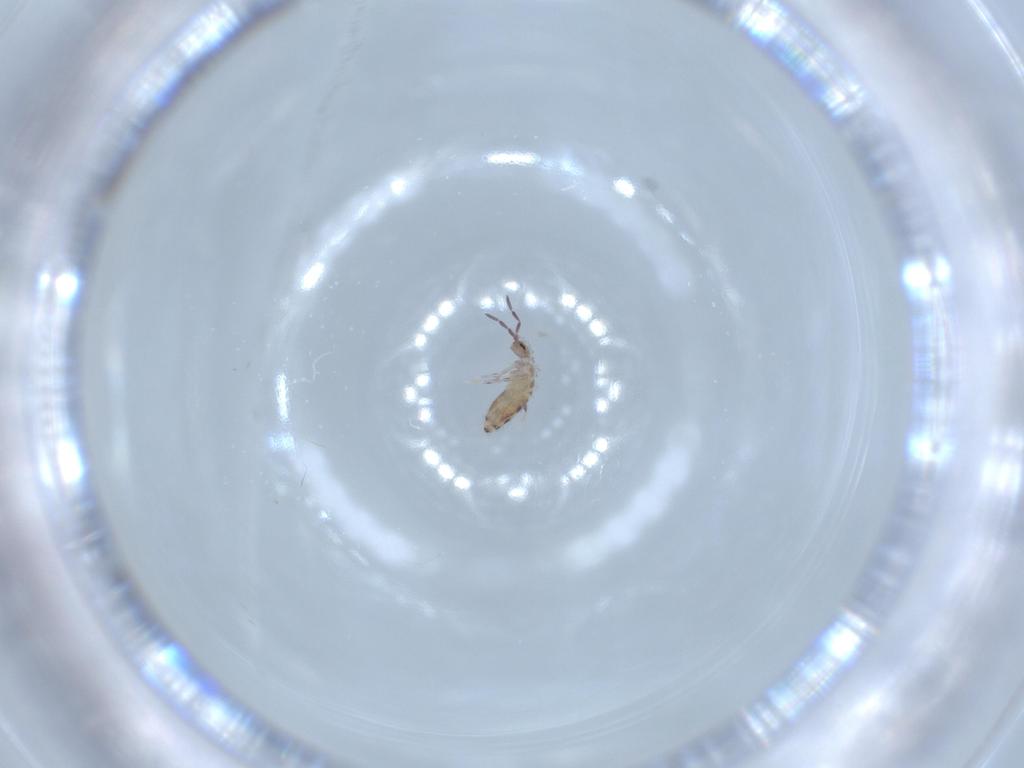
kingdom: Animalia
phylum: Arthropoda
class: Collembola
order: Entomobryomorpha
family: Entomobryidae
